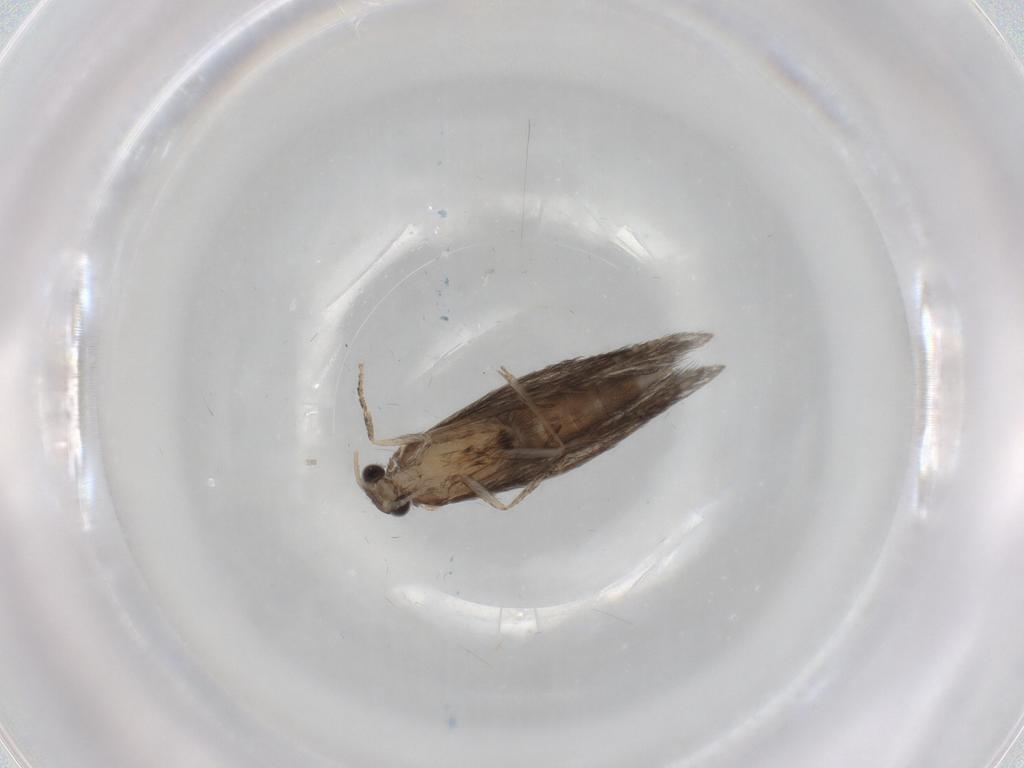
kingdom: Animalia
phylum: Arthropoda
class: Insecta
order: Trichoptera
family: Hydroptilidae
